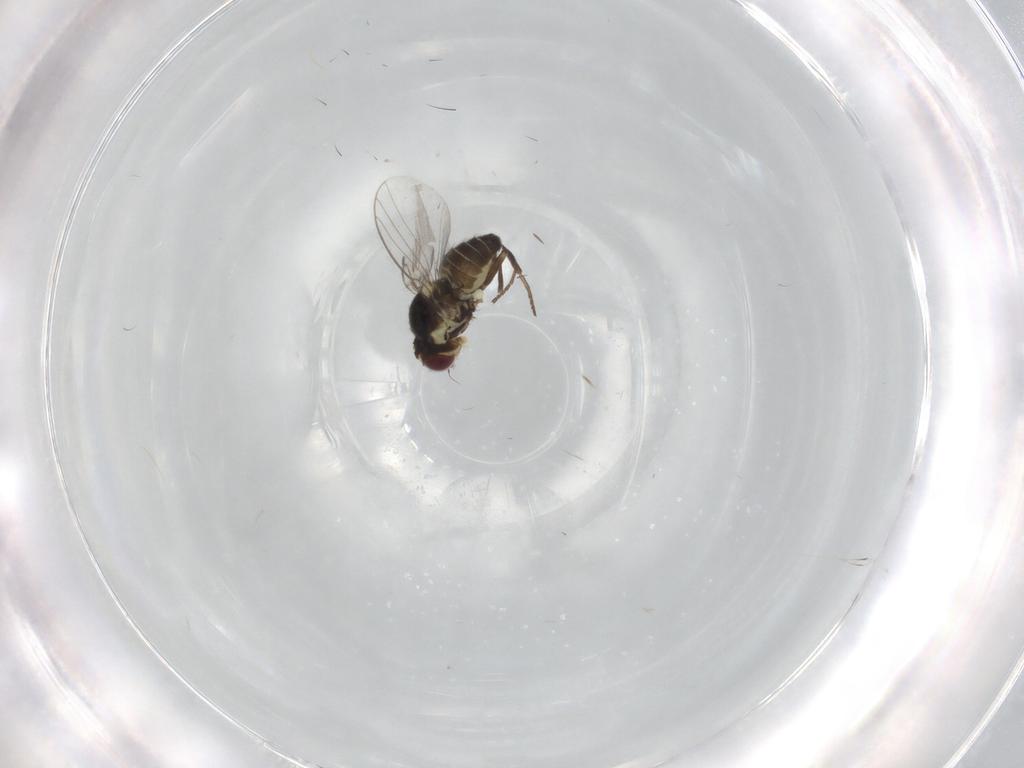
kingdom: Animalia
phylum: Arthropoda
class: Insecta
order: Diptera
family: Agromyzidae
